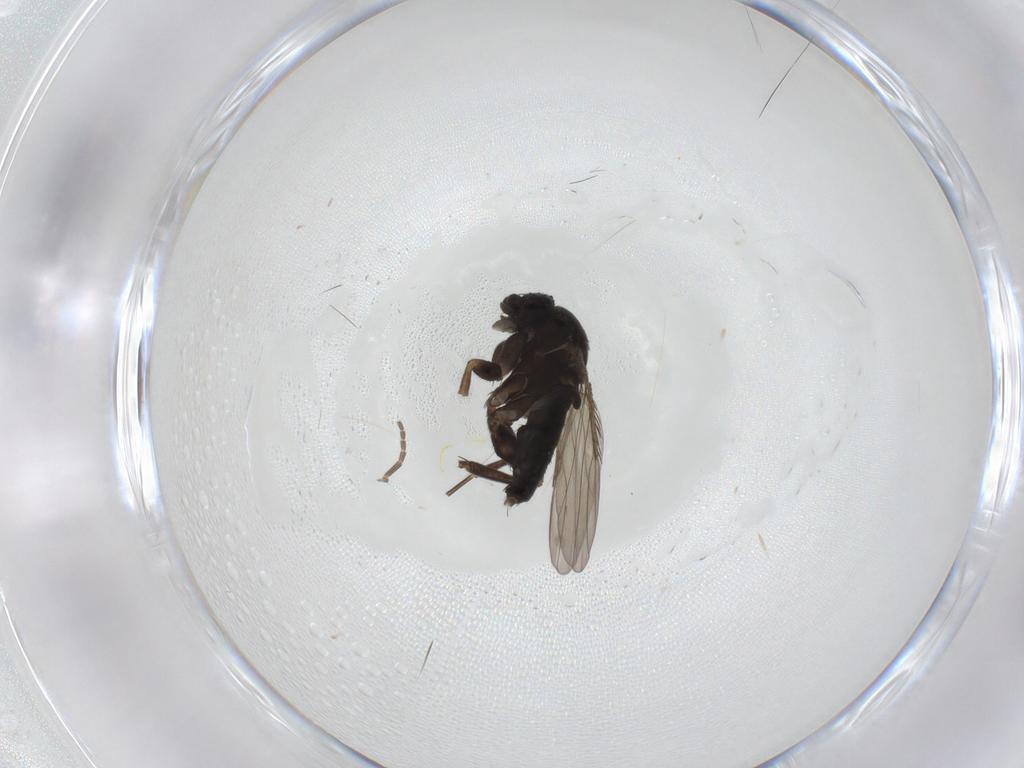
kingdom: Animalia
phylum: Arthropoda
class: Insecta
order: Diptera
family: Phoridae
